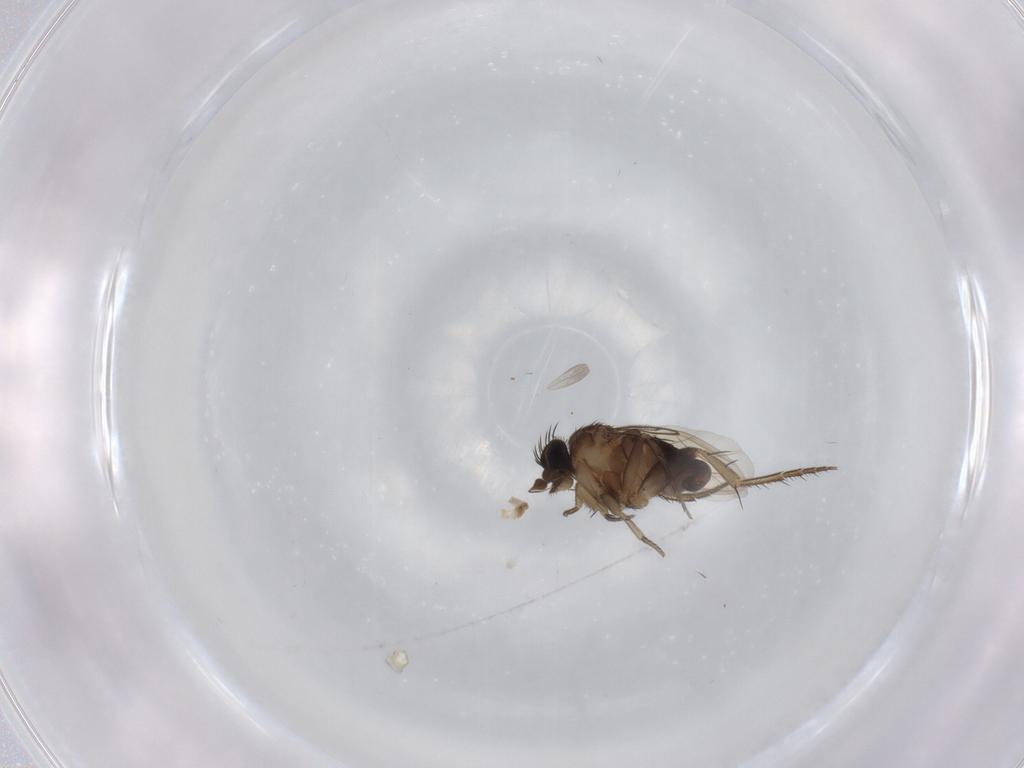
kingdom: Animalia
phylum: Arthropoda
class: Insecta
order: Diptera
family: Phoridae
